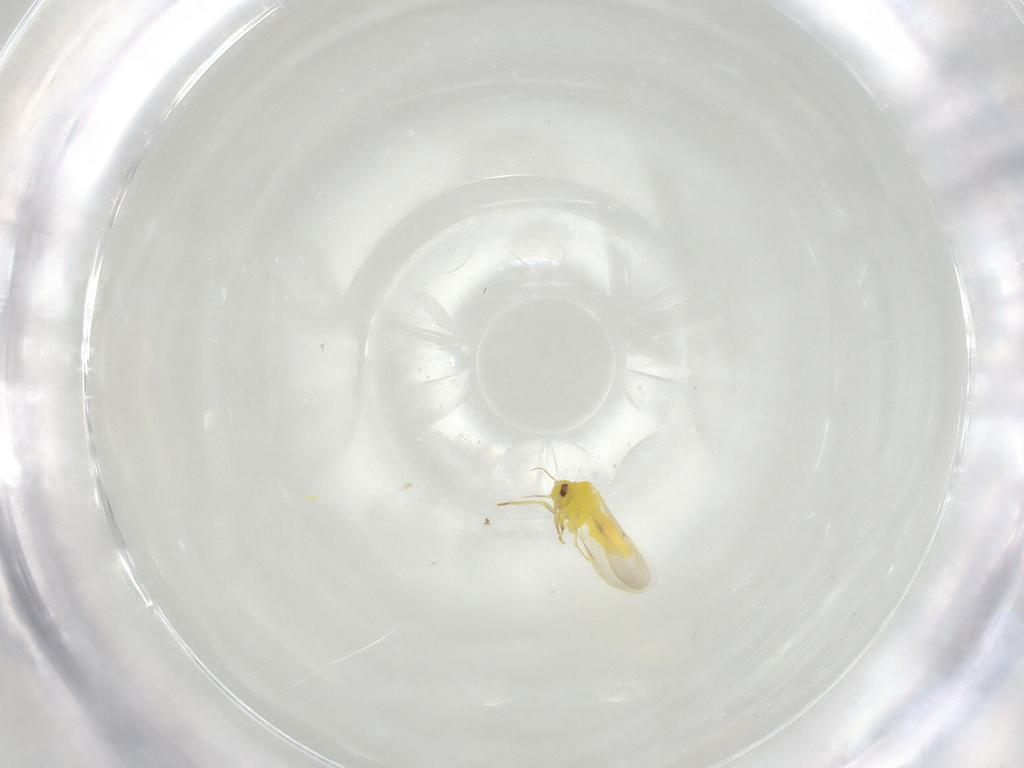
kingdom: Animalia
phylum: Arthropoda
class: Insecta
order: Hemiptera
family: Aleyrodidae
